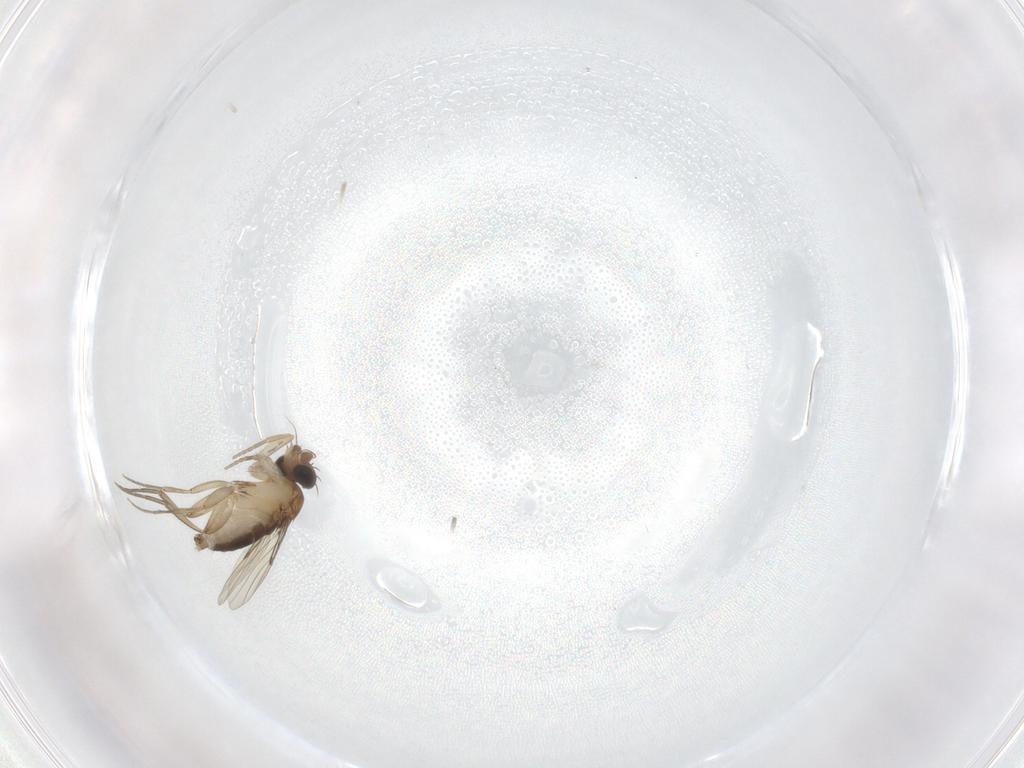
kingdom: Animalia
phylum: Arthropoda
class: Insecta
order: Diptera
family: Phoridae
